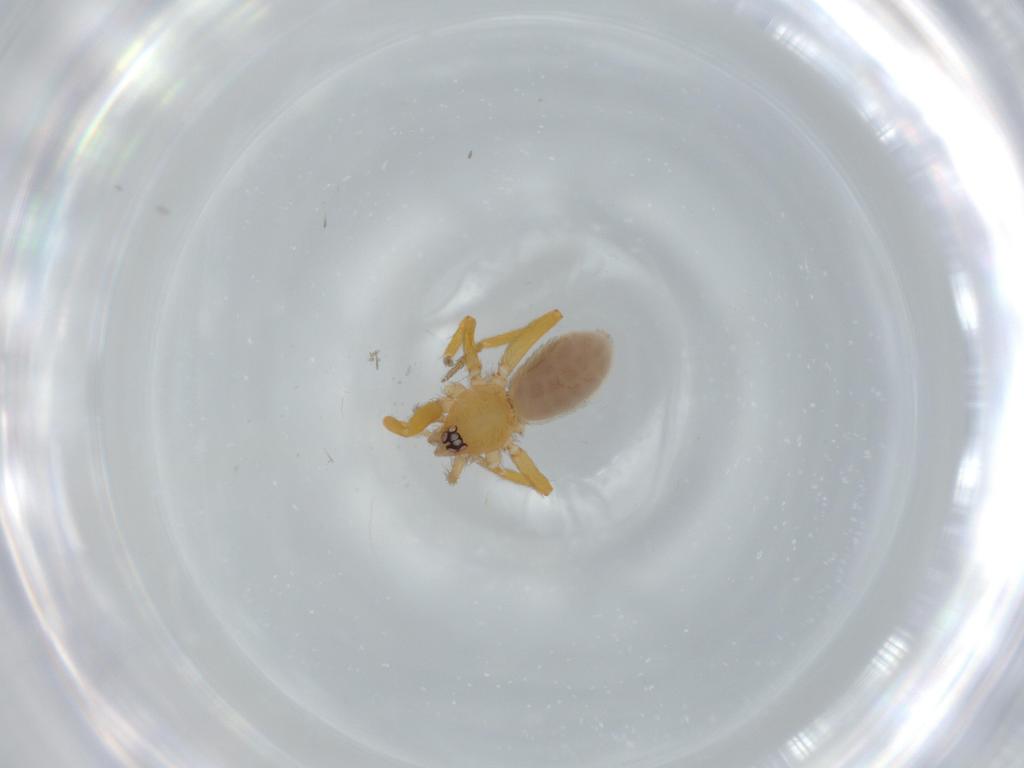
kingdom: Animalia
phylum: Arthropoda
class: Arachnida
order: Araneae
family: Oonopidae
